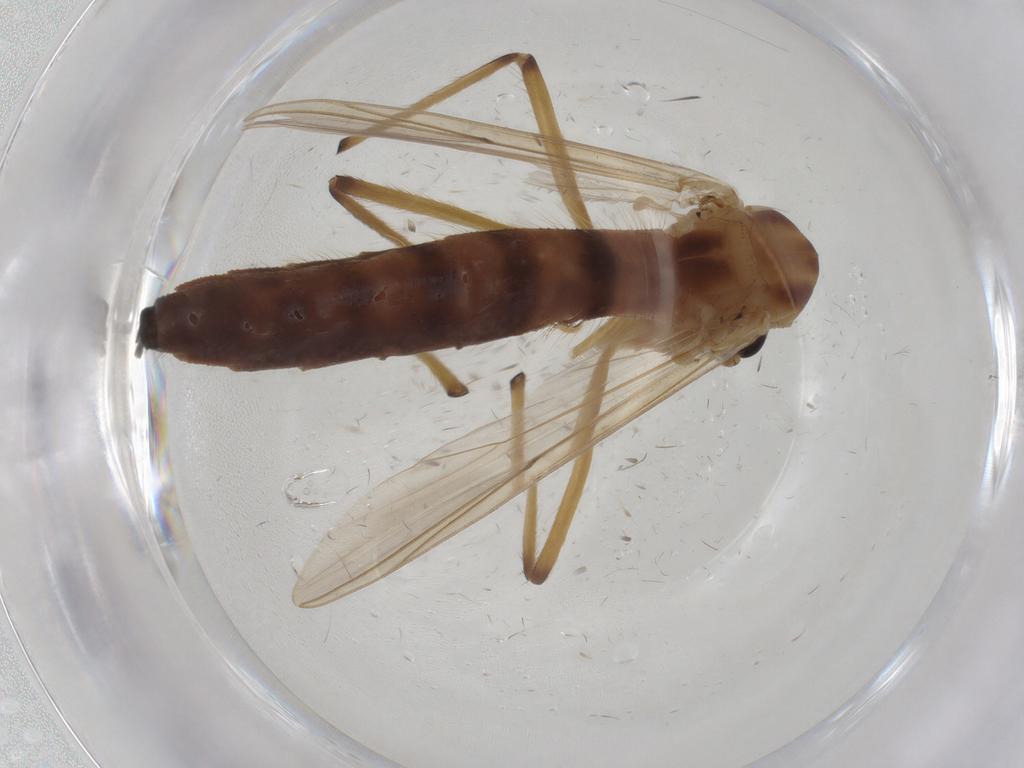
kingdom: Animalia
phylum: Arthropoda
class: Insecta
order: Diptera
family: Chironomidae
